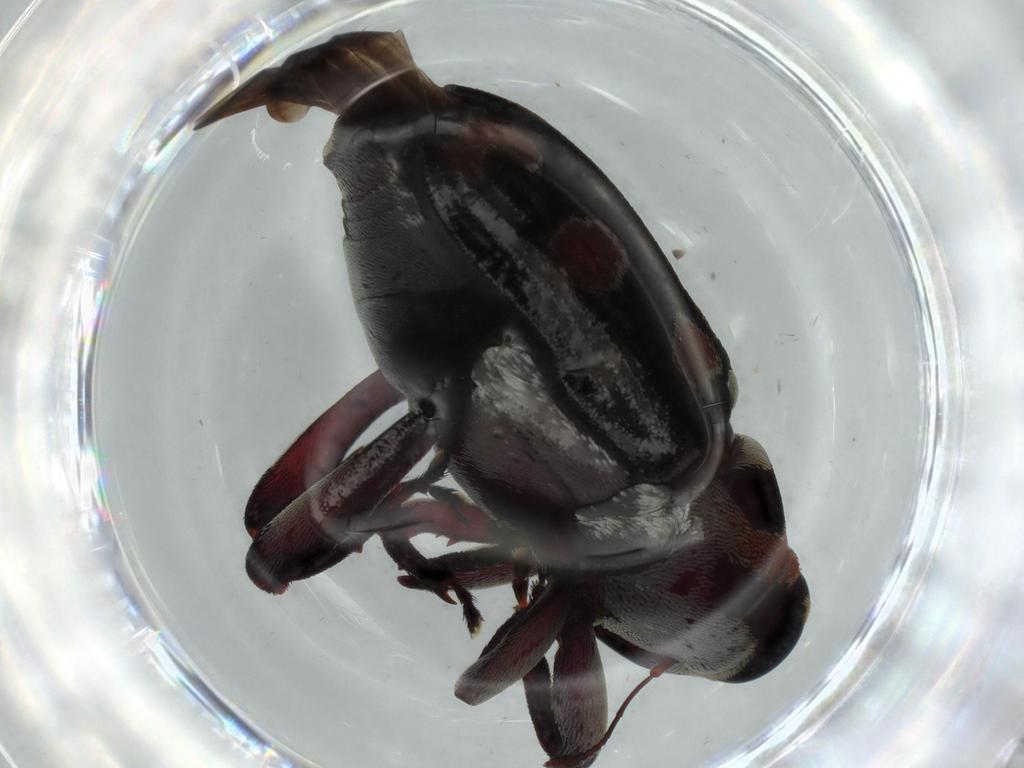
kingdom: Animalia
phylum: Arthropoda
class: Insecta
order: Coleoptera
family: Curculionidae
